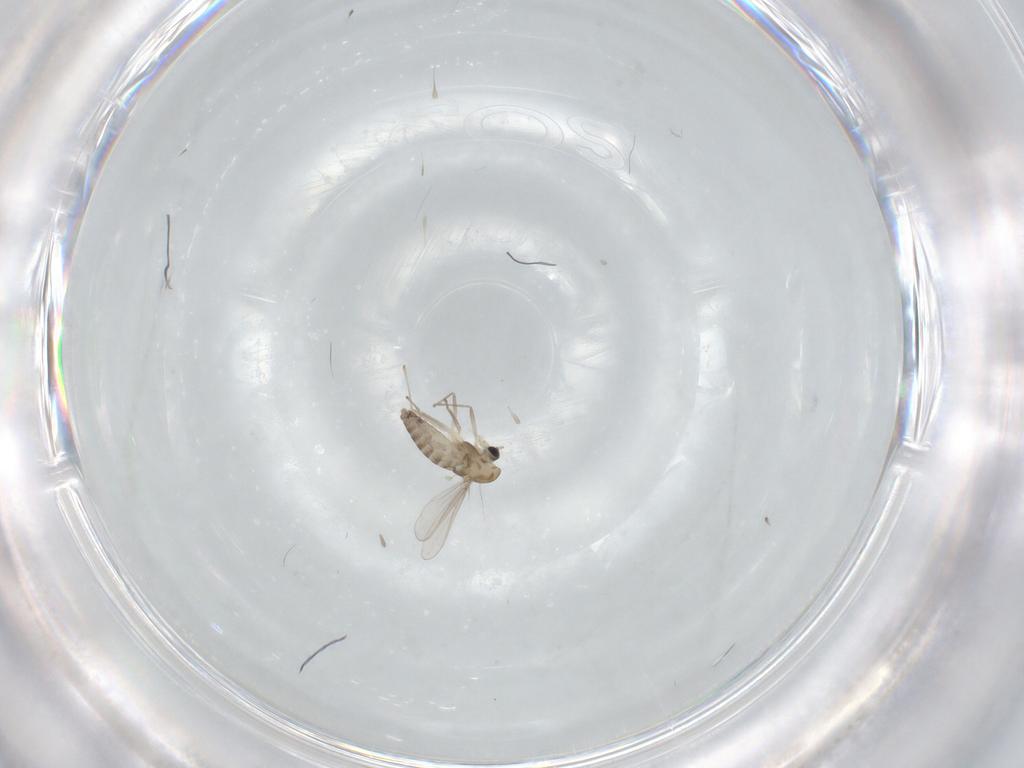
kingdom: Animalia
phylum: Arthropoda
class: Insecta
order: Diptera
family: Chironomidae
